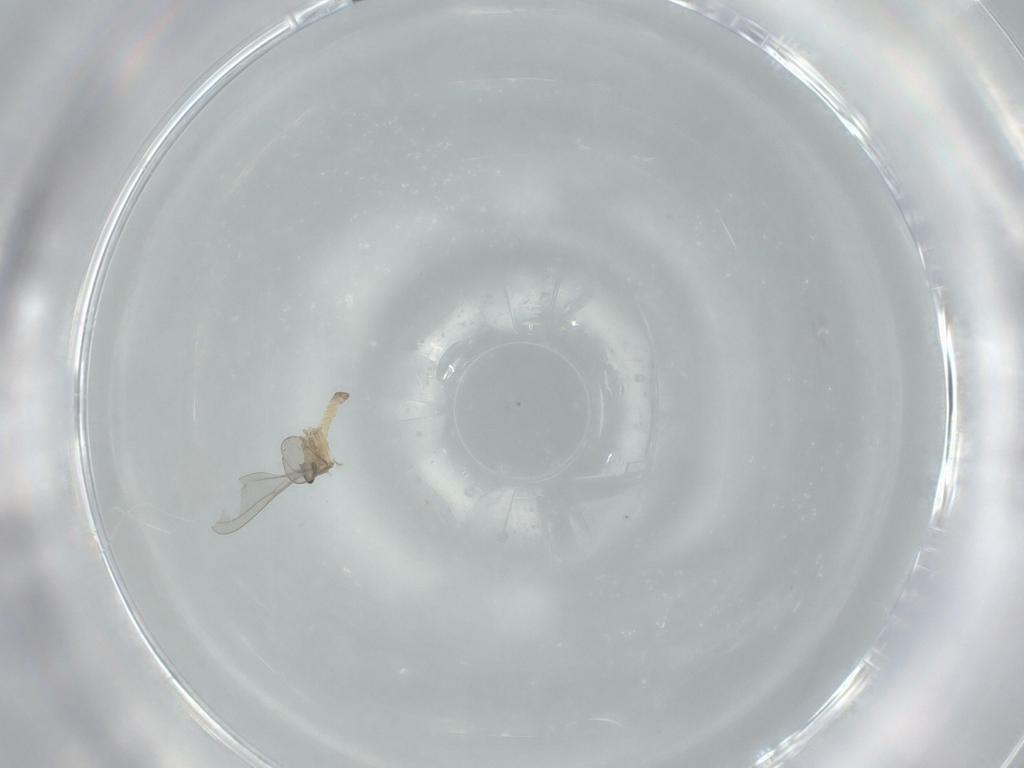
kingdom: Animalia
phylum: Arthropoda
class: Insecta
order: Diptera
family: Cecidomyiidae
